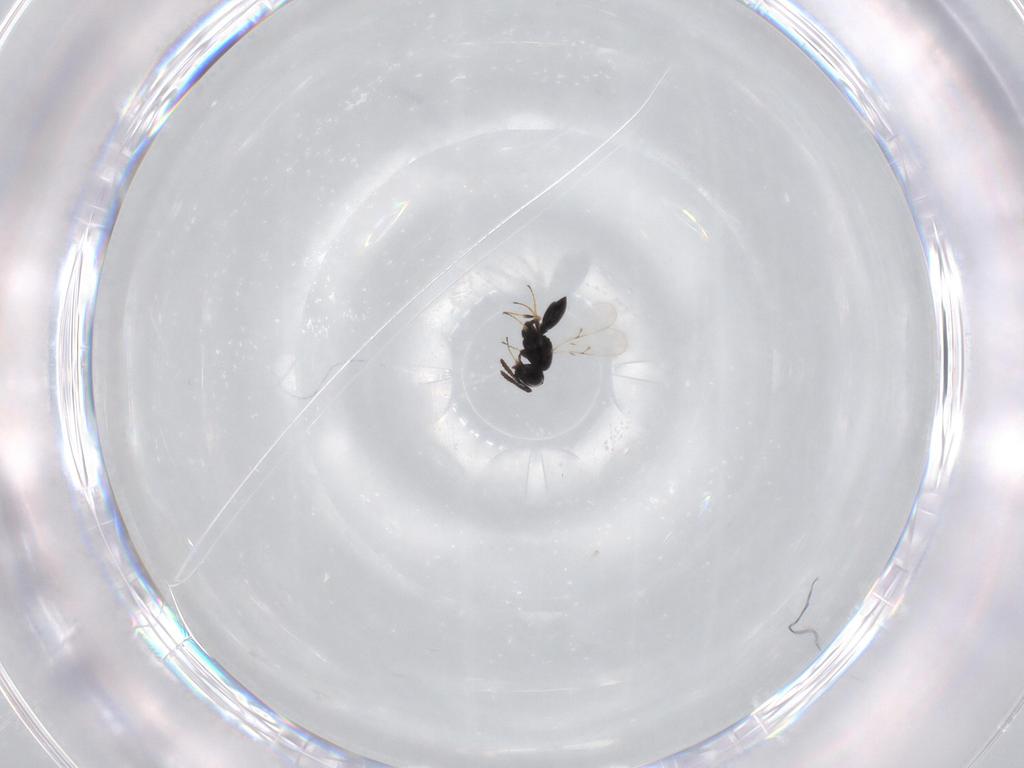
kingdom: Animalia
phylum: Arthropoda
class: Insecta
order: Hymenoptera
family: Scelionidae
